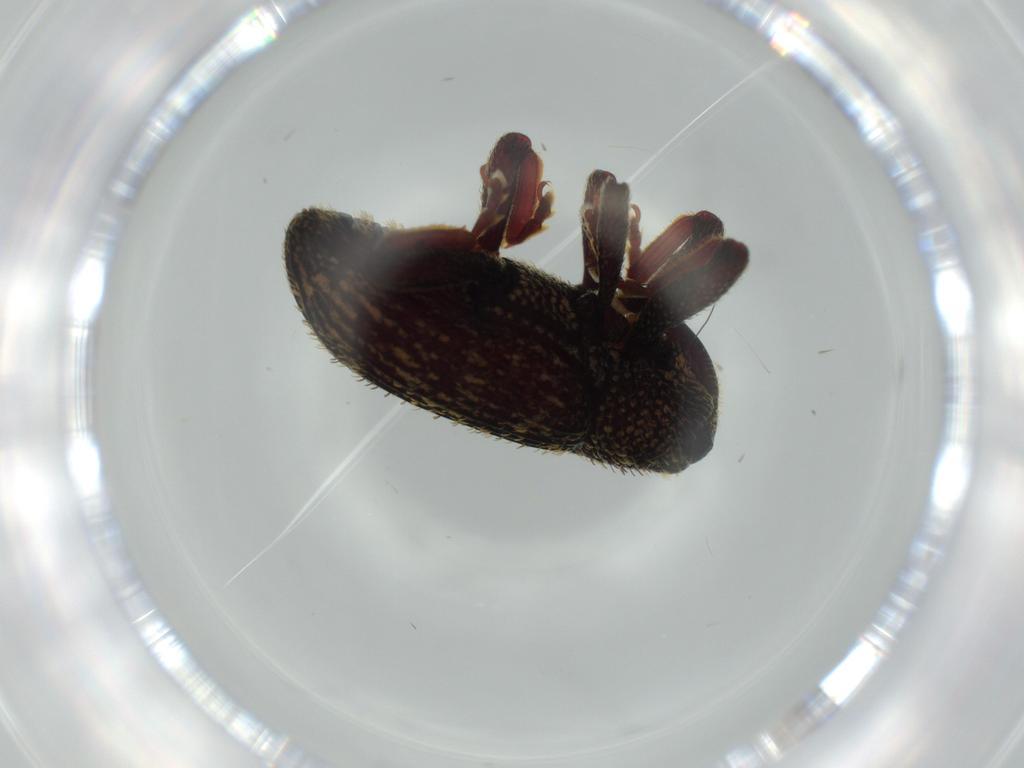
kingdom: Animalia
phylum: Arthropoda
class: Insecta
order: Coleoptera
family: Curculionidae
